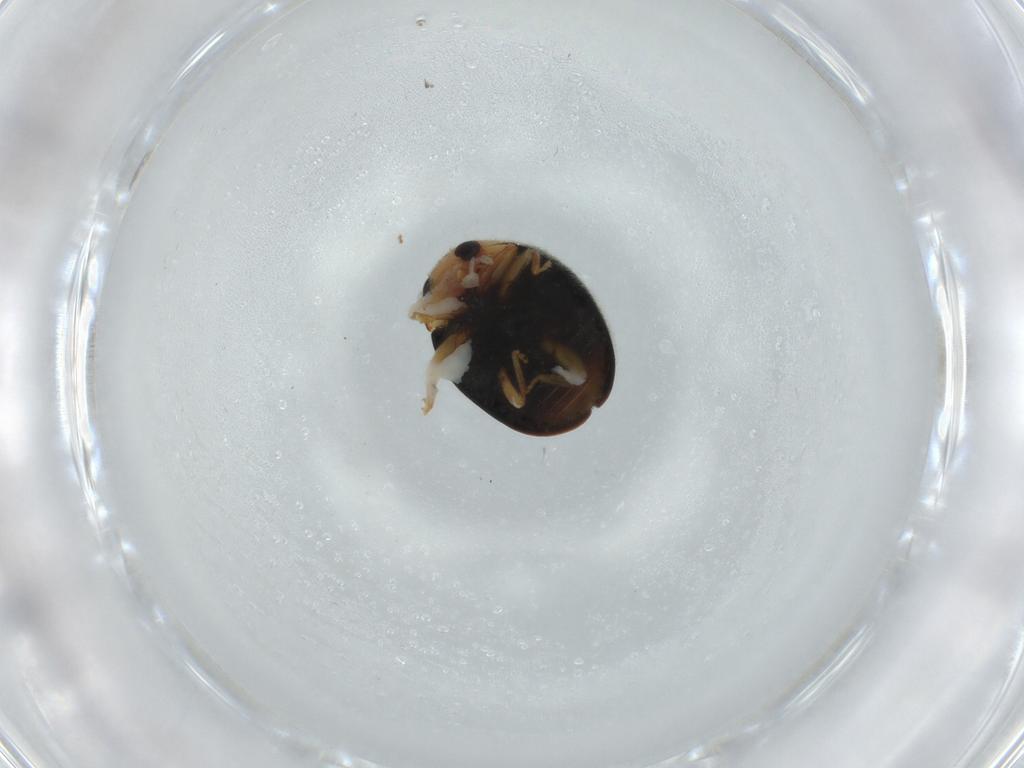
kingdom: Animalia
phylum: Arthropoda
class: Insecta
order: Coleoptera
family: Coccinellidae
